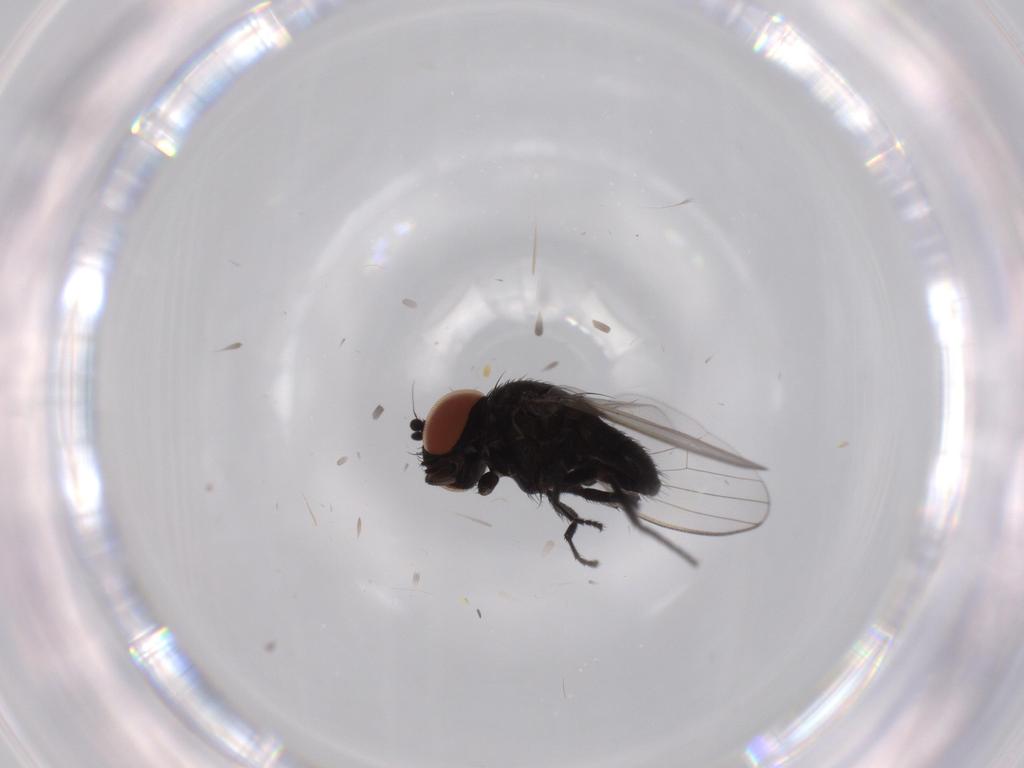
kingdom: Animalia
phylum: Arthropoda
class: Insecta
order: Diptera
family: Milichiidae
